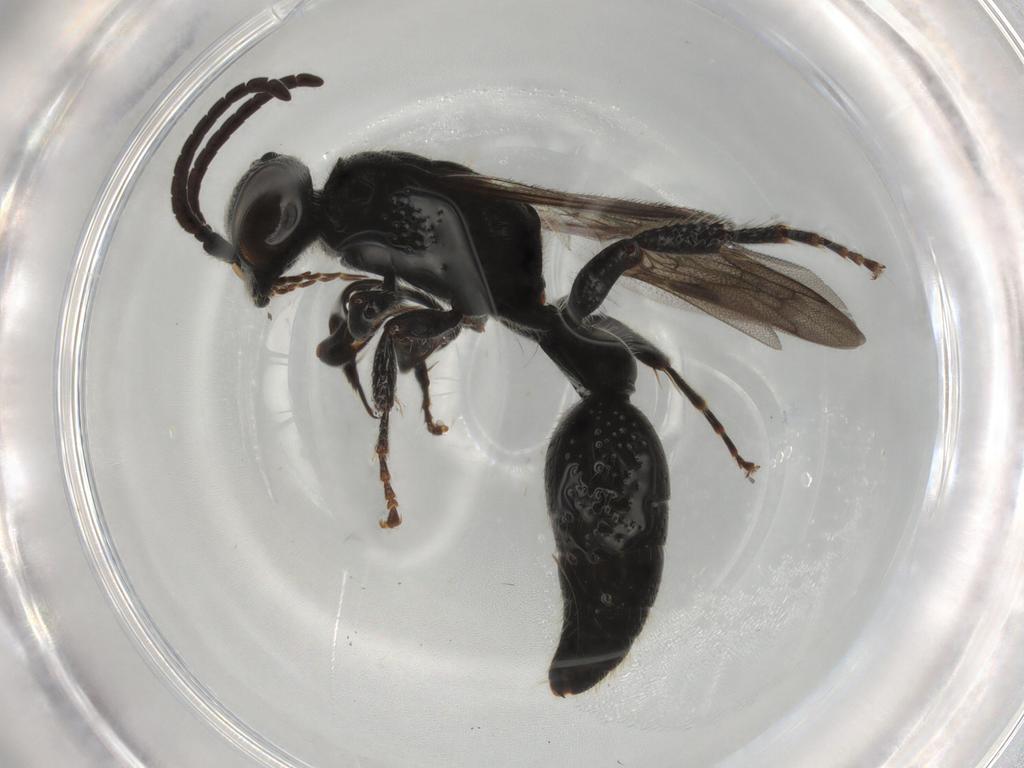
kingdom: Animalia
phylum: Arthropoda
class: Insecta
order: Hymenoptera
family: Tiphiidae
